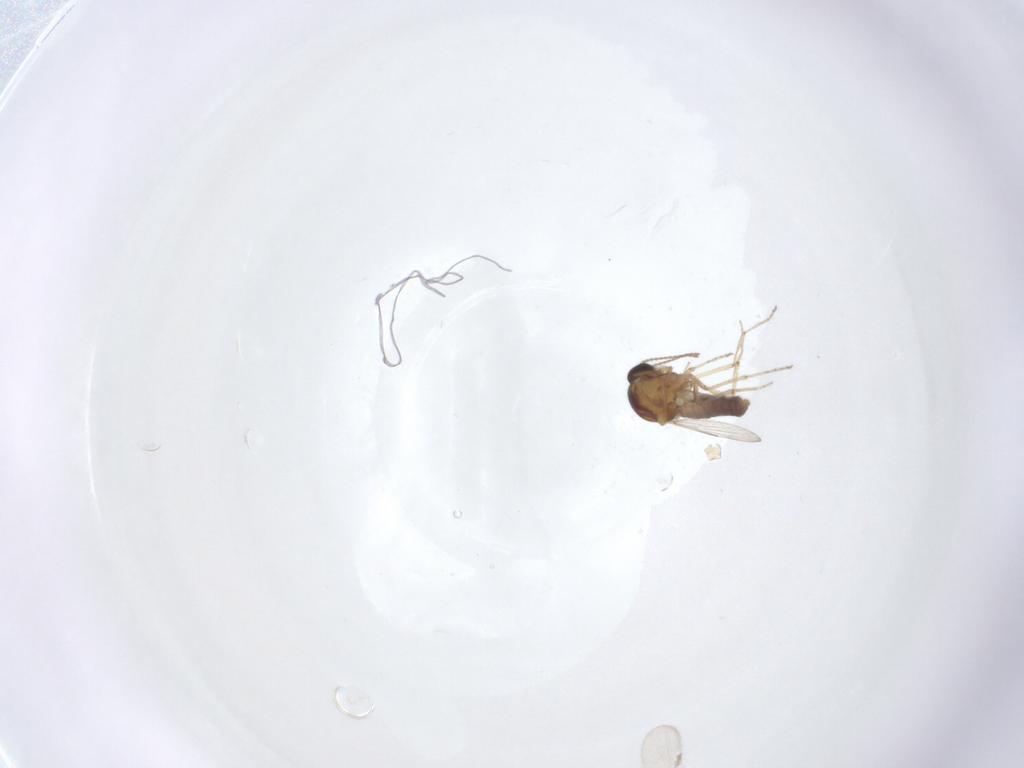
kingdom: Animalia
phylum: Arthropoda
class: Insecta
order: Diptera
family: Ceratopogonidae
